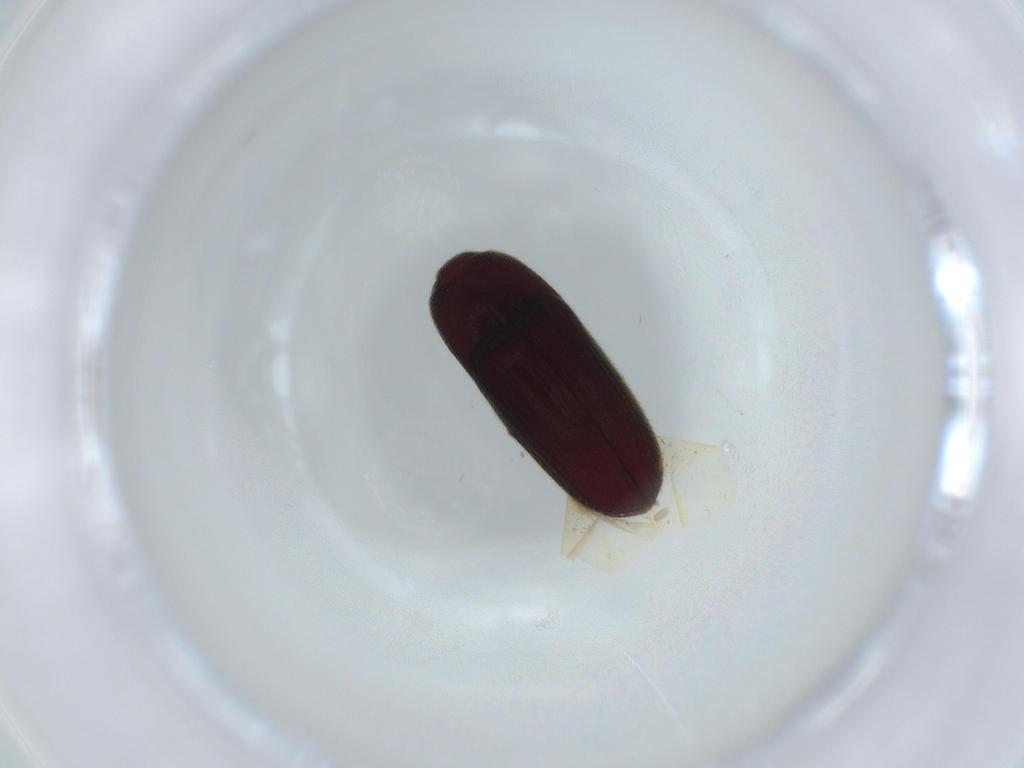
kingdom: Animalia
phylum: Arthropoda
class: Insecta
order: Coleoptera
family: Throscidae
